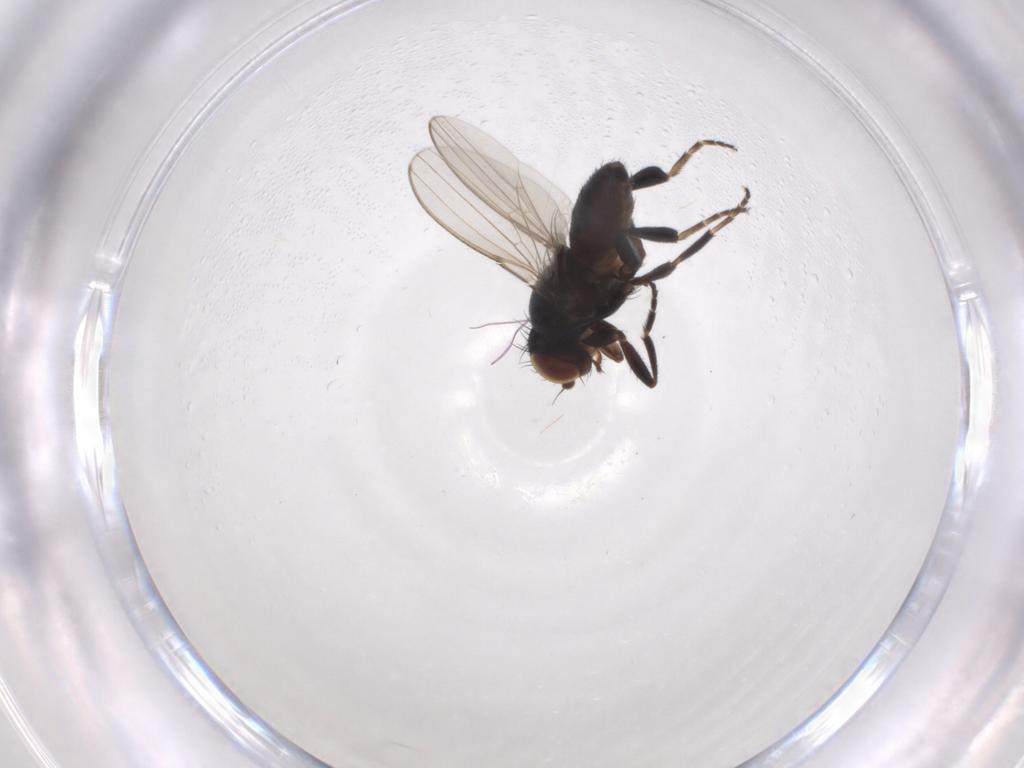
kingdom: Animalia
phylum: Arthropoda
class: Insecta
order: Diptera
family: Chloropidae
